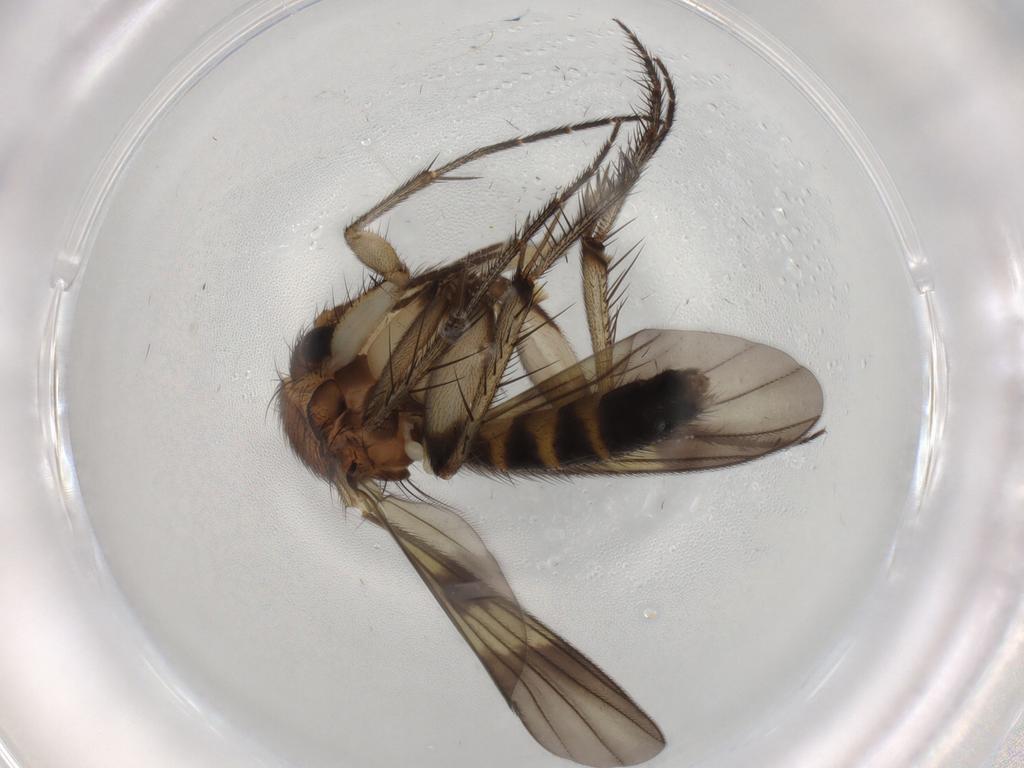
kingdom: Animalia
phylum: Arthropoda
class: Insecta
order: Diptera
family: Mycetophilidae
